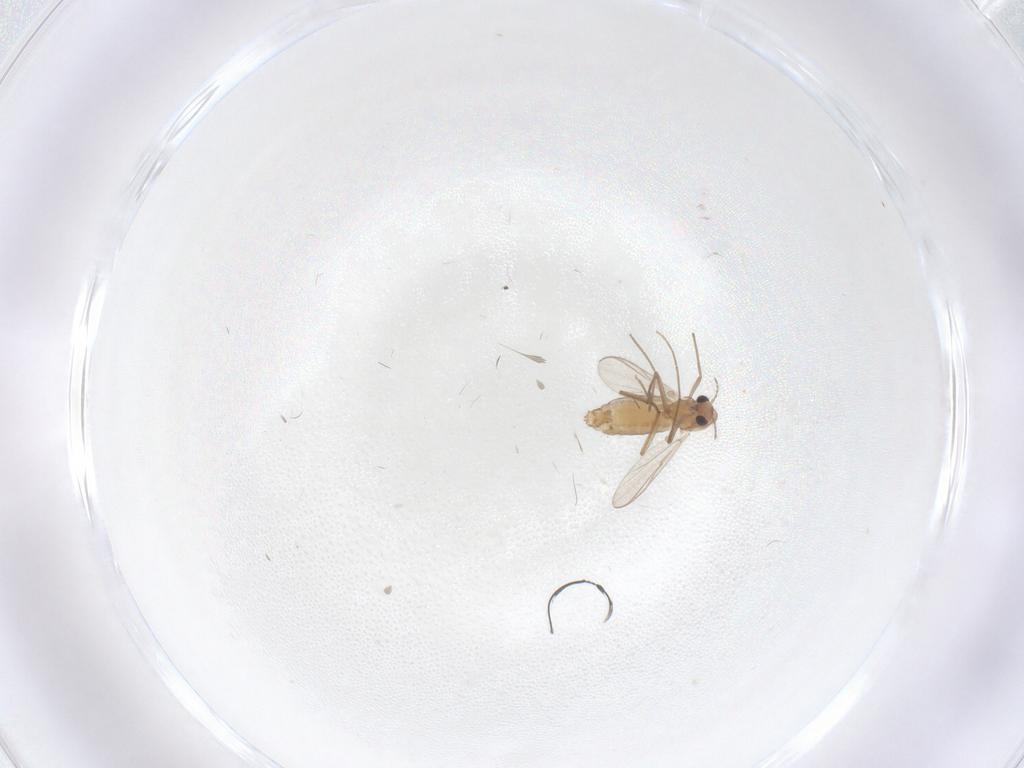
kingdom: Animalia
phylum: Arthropoda
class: Insecta
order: Diptera
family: Chironomidae
